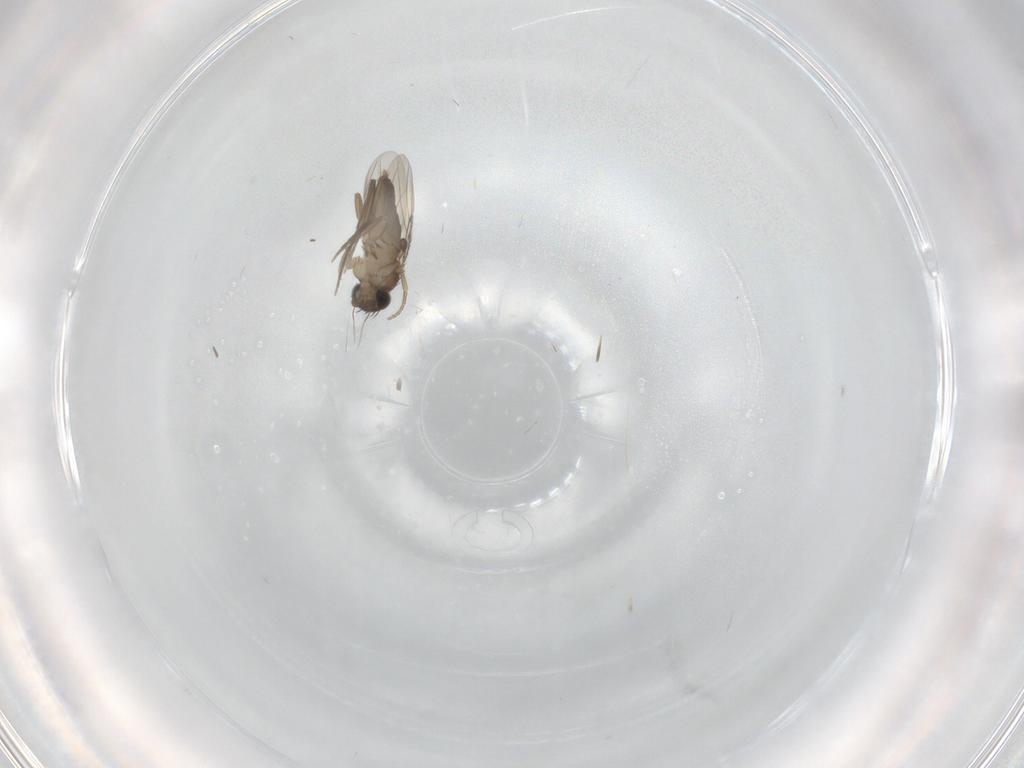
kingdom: Animalia
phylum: Arthropoda
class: Insecta
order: Diptera
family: Phoridae
